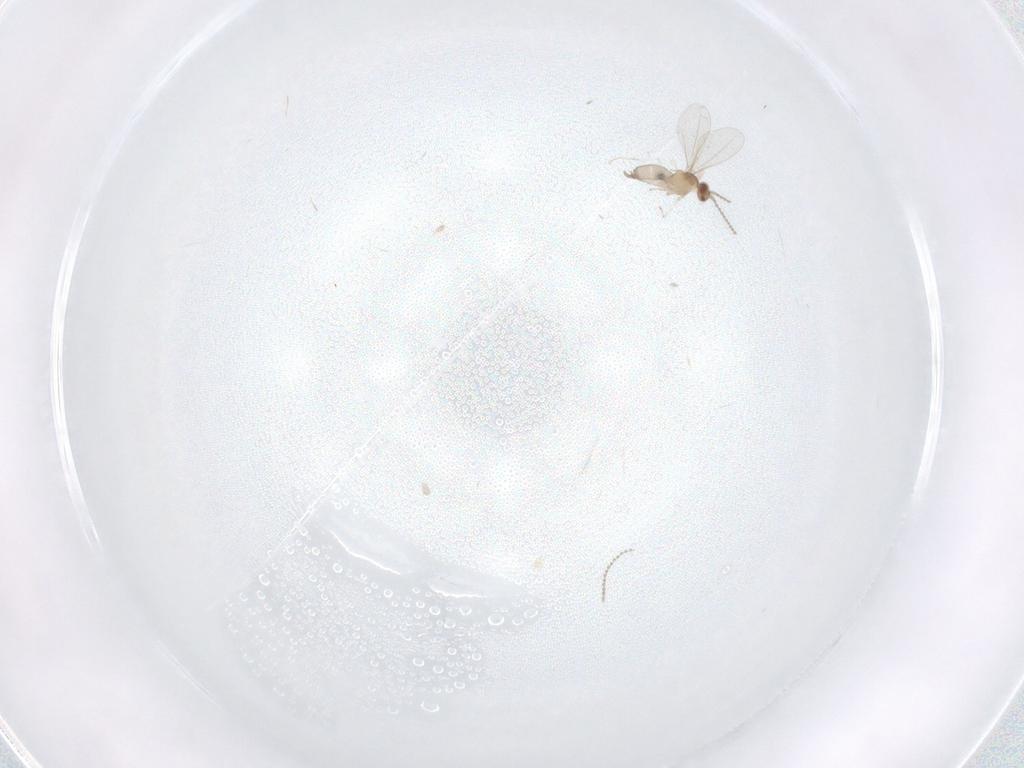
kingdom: Animalia
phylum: Arthropoda
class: Insecta
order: Diptera
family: Cecidomyiidae
